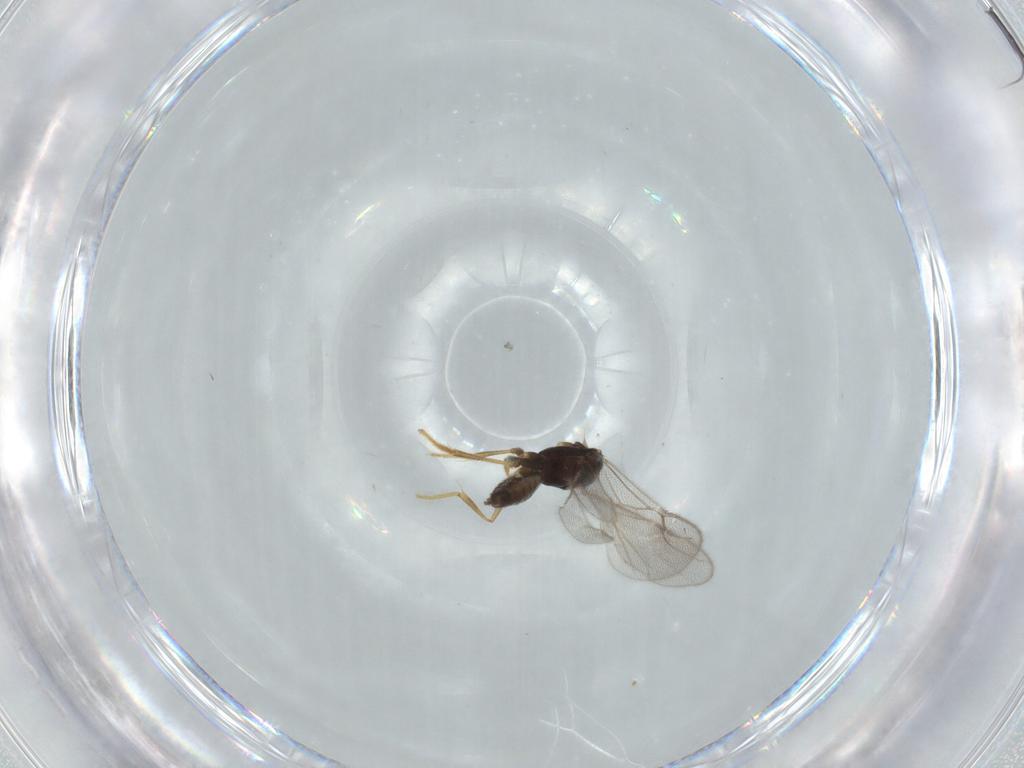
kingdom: Animalia
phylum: Arthropoda
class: Insecta
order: Hymenoptera
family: Dryinidae
